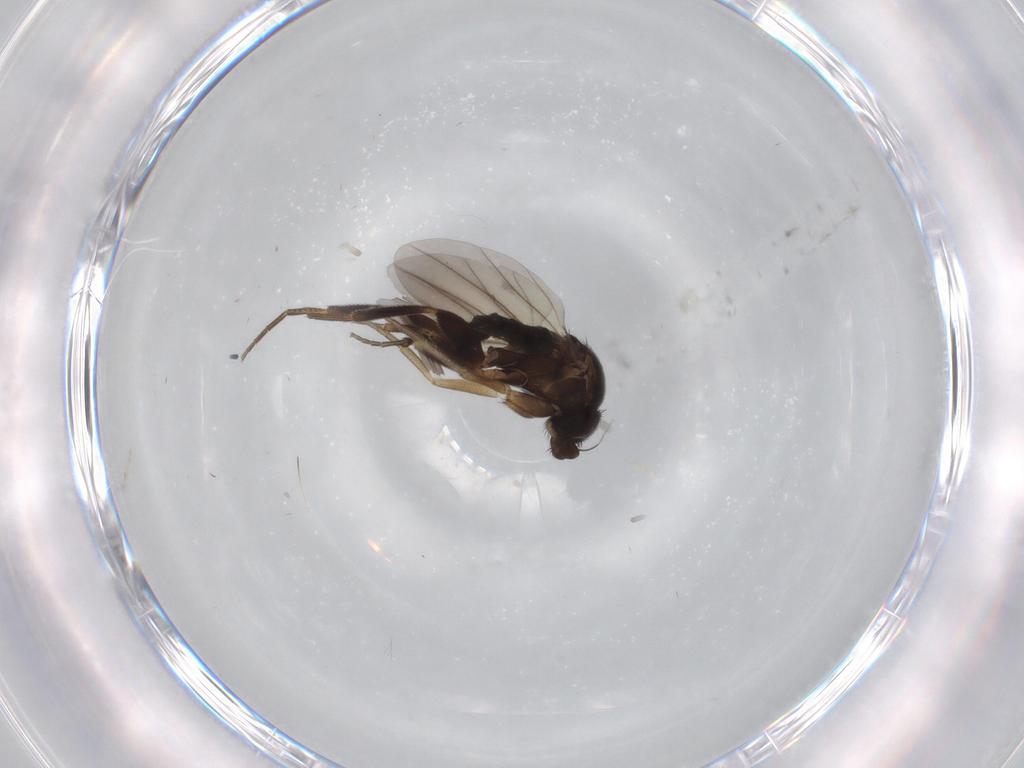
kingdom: Animalia
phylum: Arthropoda
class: Insecta
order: Diptera
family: Phoridae
